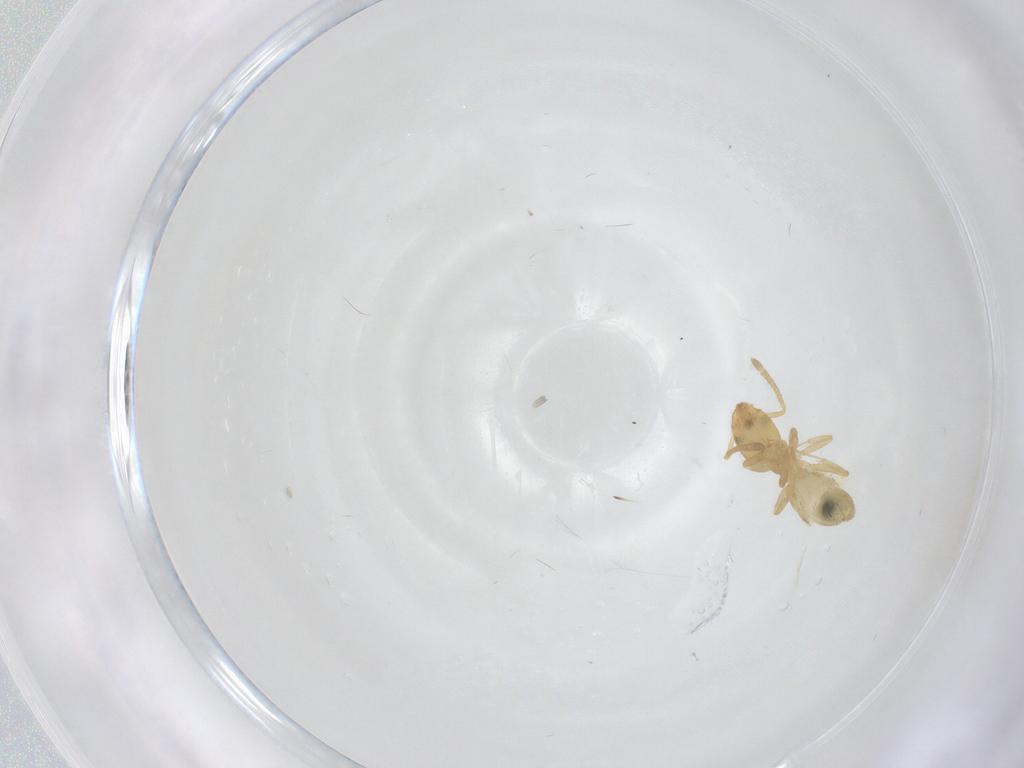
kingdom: Animalia
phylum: Arthropoda
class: Insecta
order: Hymenoptera
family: Formicidae
